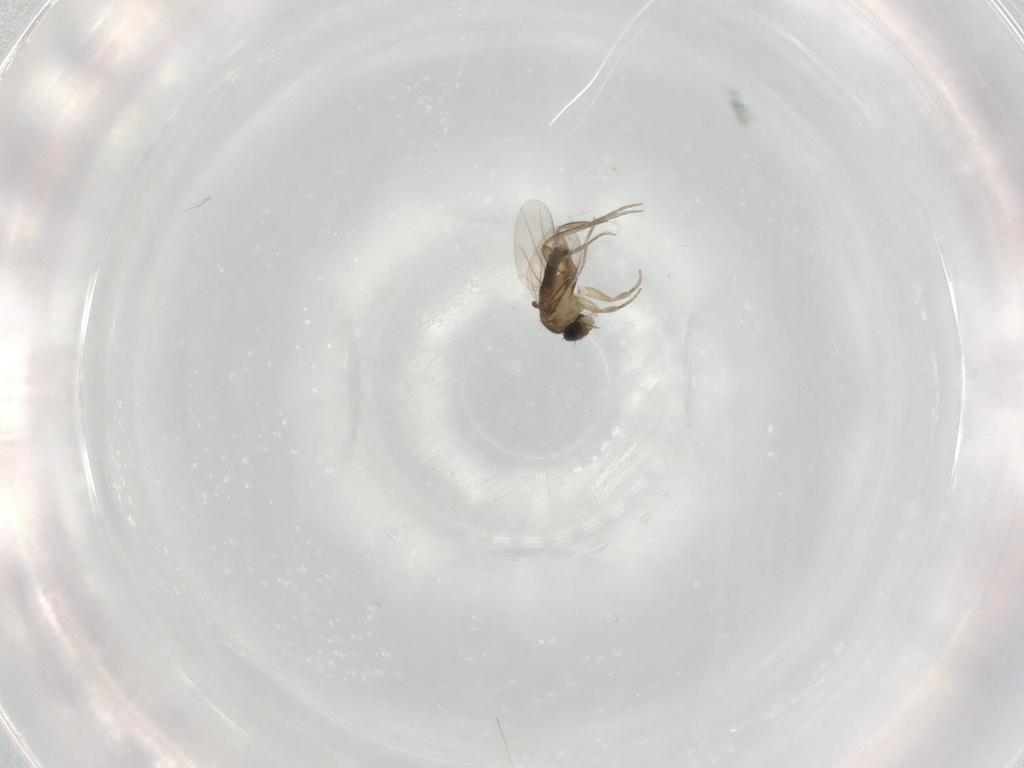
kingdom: Animalia
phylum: Arthropoda
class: Insecta
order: Diptera
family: Phoridae
